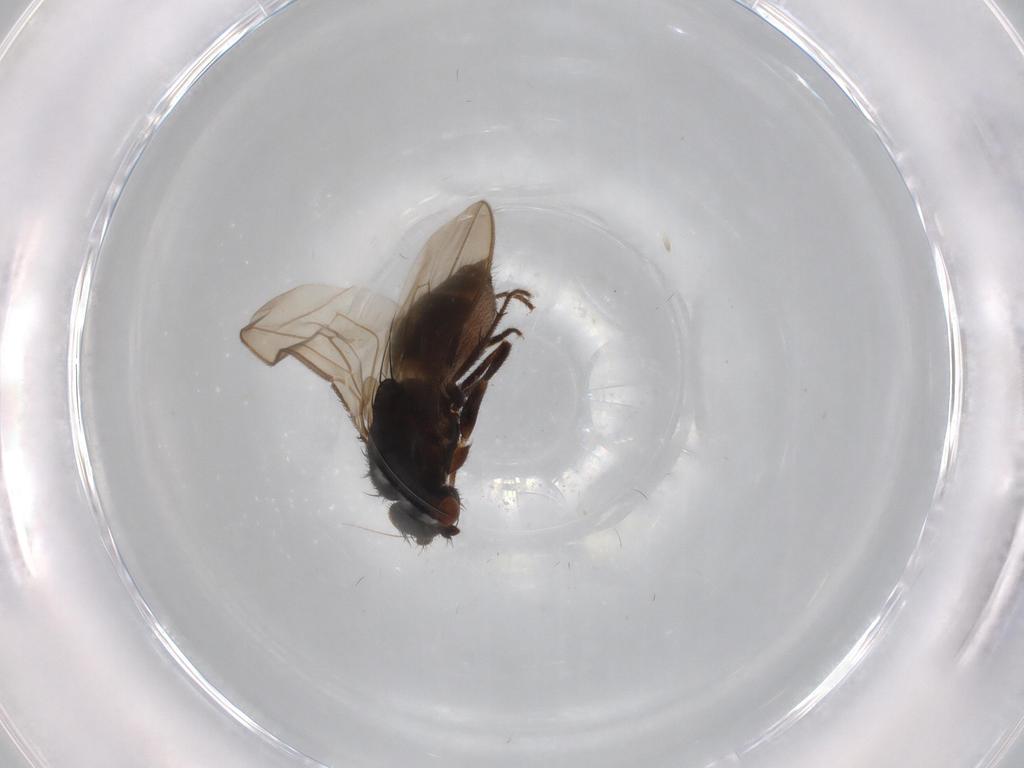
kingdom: Animalia
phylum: Arthropoda
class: Insecta
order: Diptera
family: Sphaeroceridae
